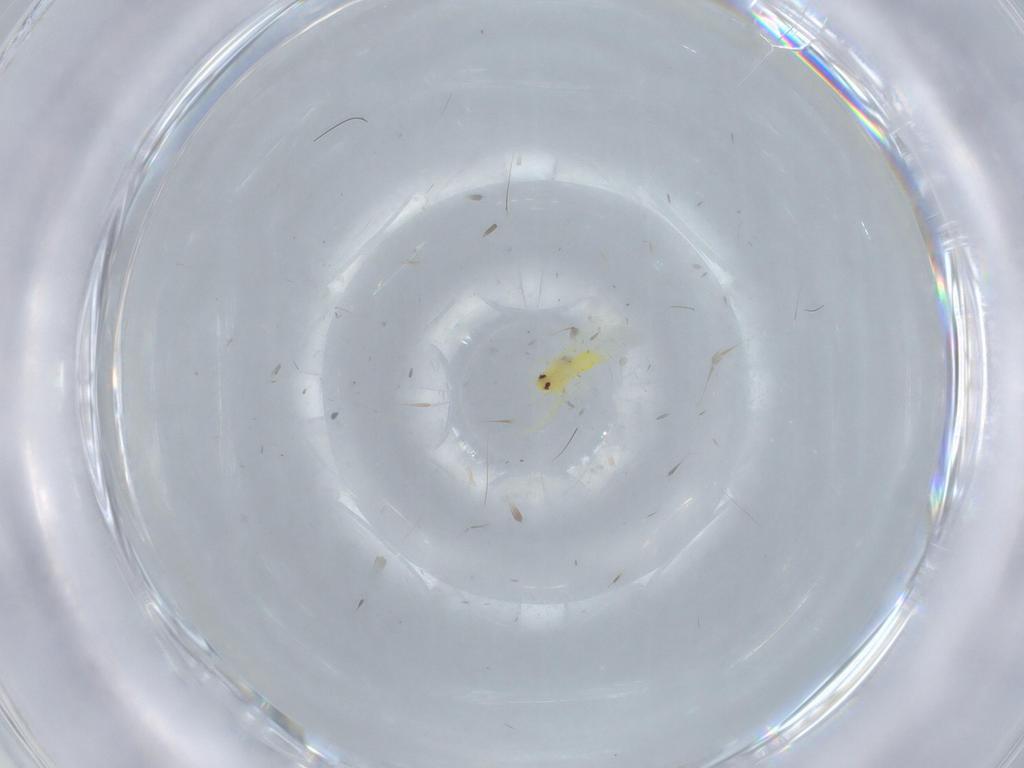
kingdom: Animalia
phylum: Arthropoda
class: Insecta
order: Hemiptera
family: Aleyrodidae
